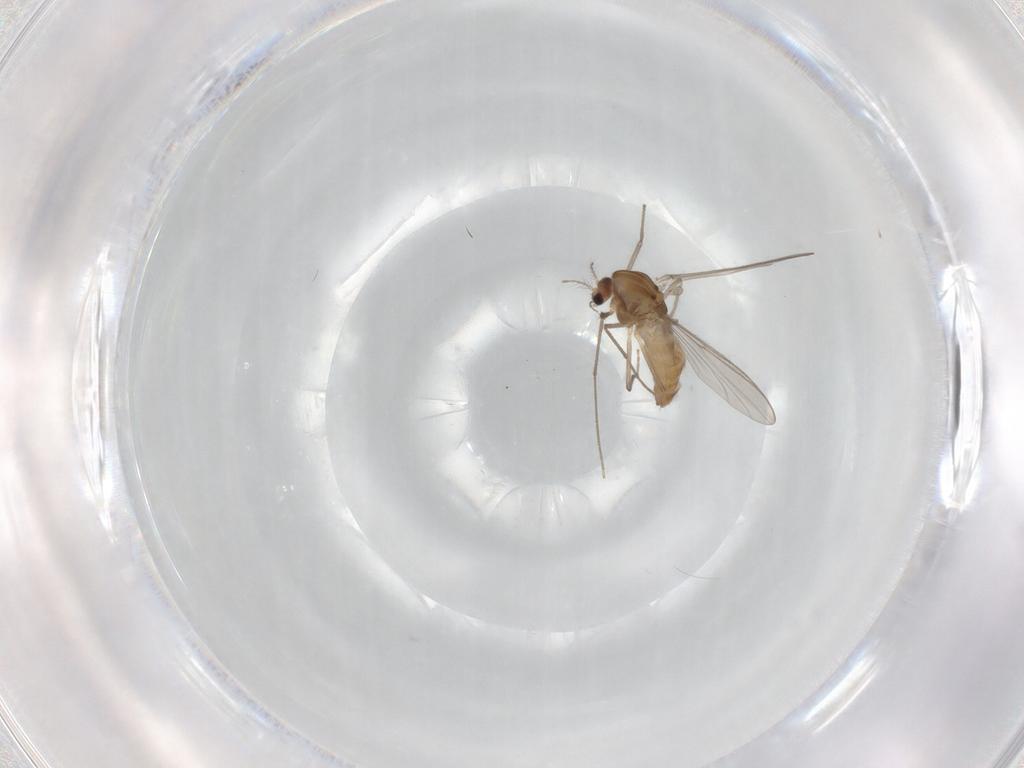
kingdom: Animalia
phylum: Arthropoda
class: Insecta
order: Diptera
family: Chironomidae
